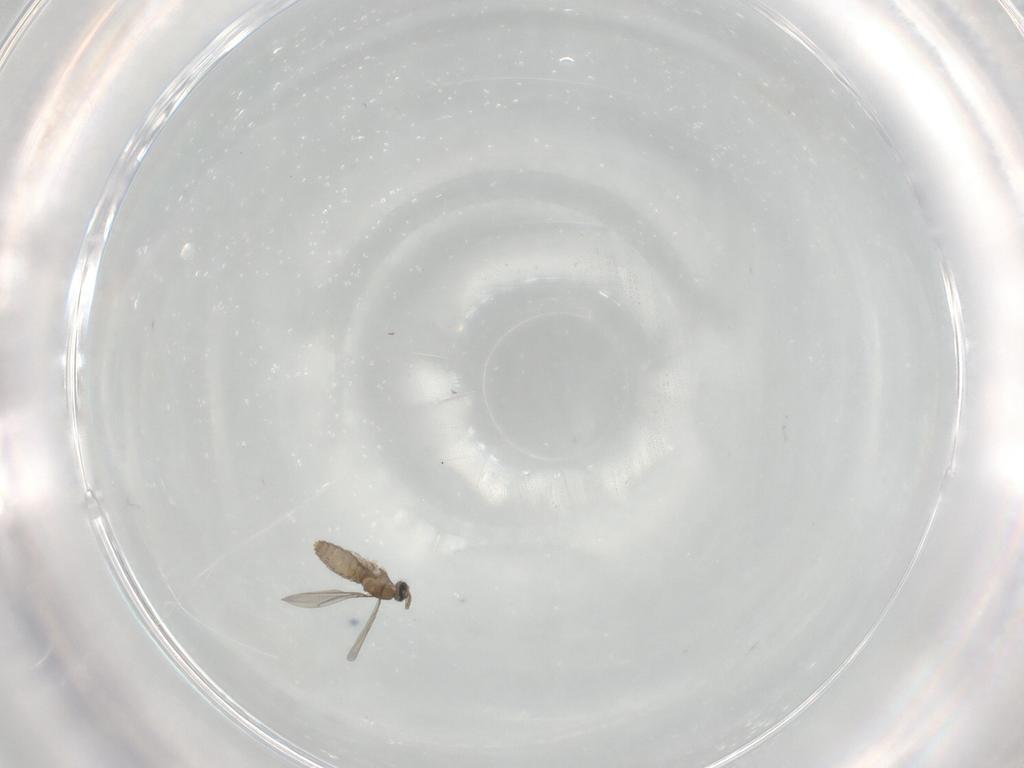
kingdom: Animalia
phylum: Arthropoda
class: Insecta
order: Diptera
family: Cecidomyiidae
